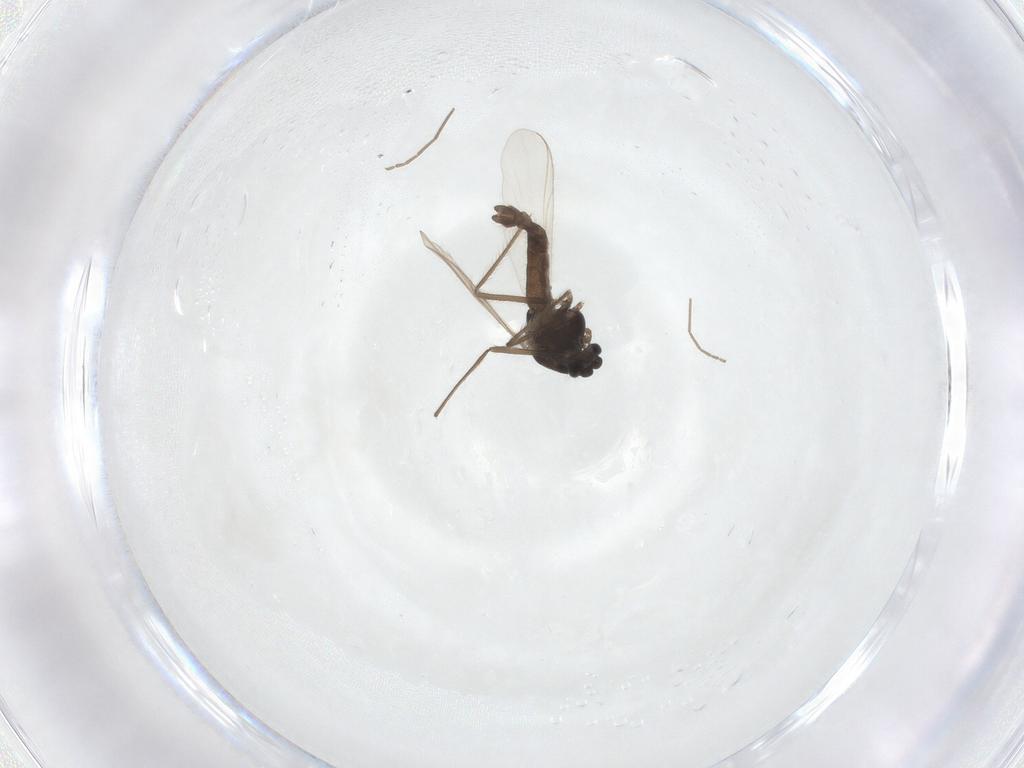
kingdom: Animalia
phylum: Arthropoda
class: Insecta
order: Diptera
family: Chironomidae
